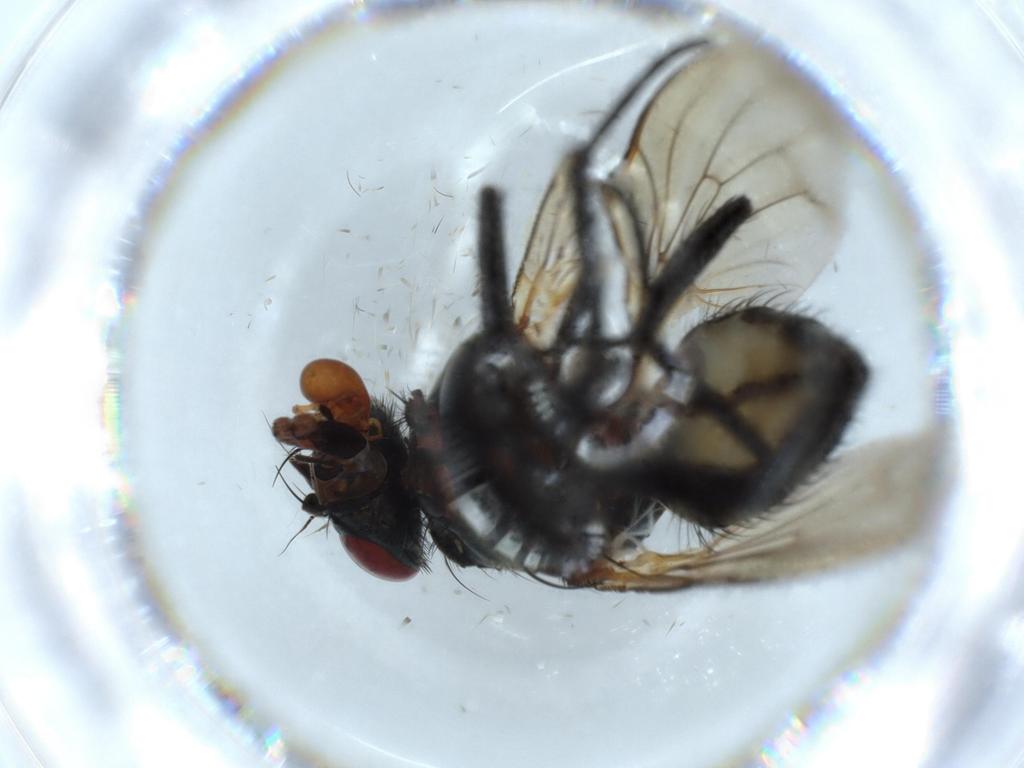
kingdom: Animalia
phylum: Arthropoda
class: Insecta
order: Diptera
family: Anthomyiidae
